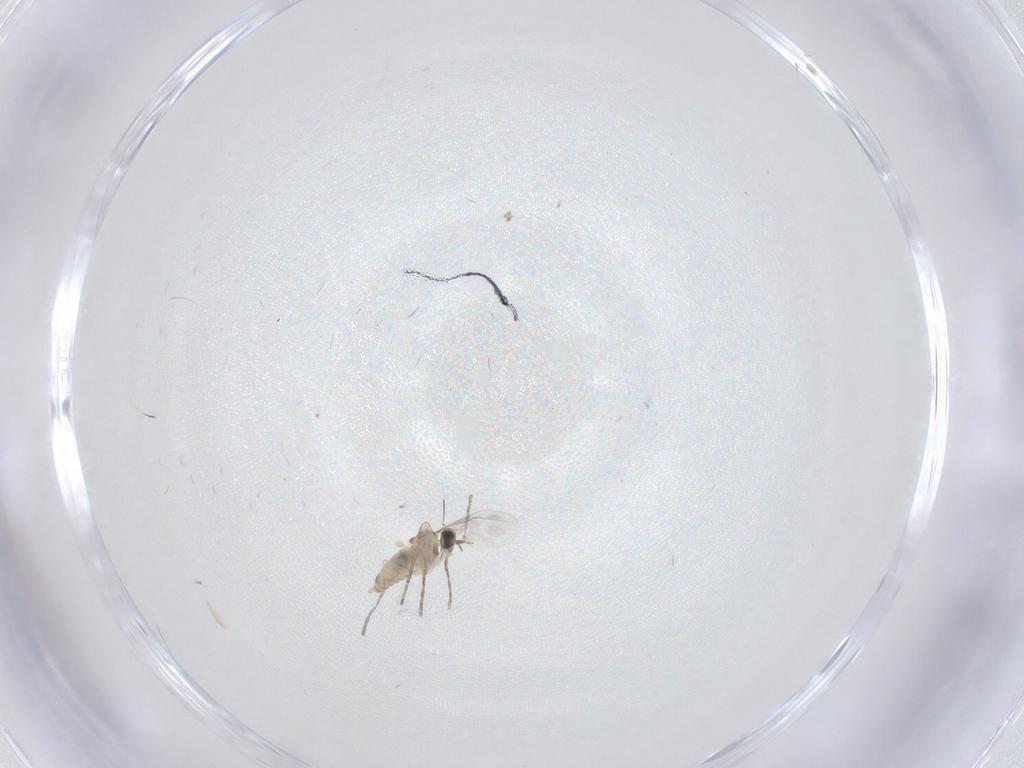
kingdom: Animalia
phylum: Arthropoda
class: Insecta
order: Diptera
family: Cecidomyiidae
